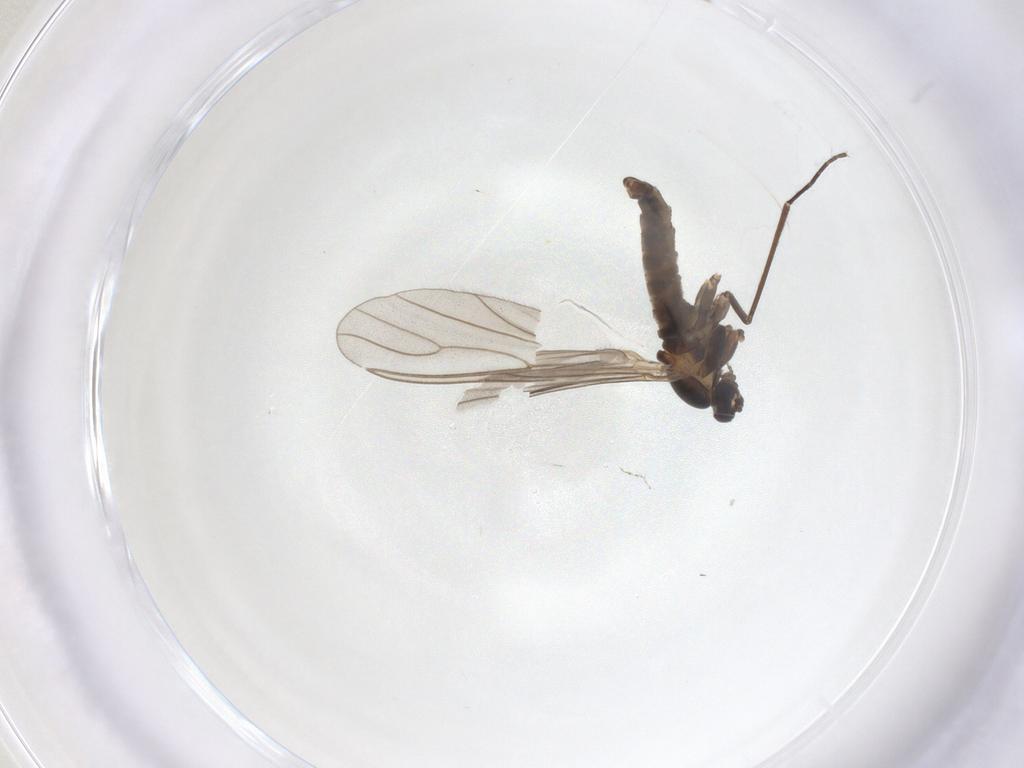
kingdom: Animalia
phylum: Arthropoda
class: Insecta
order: Diptera
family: Cecidomyiidae
